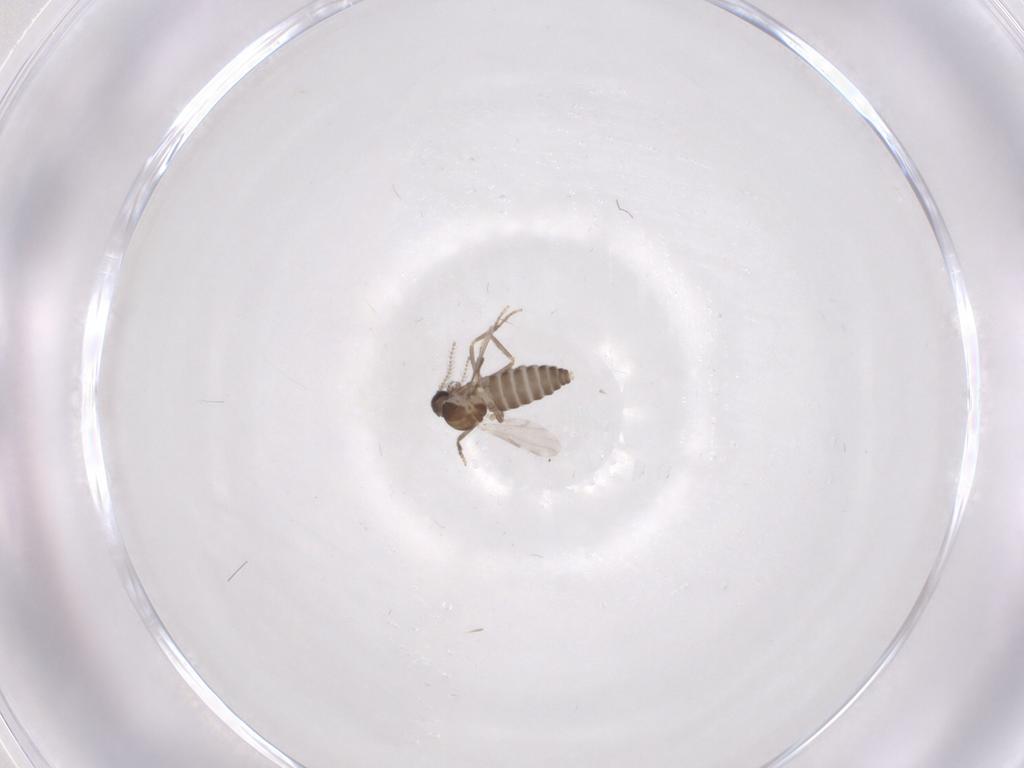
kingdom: Animalia
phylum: Arthropoda
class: Insecta
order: Diptera
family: Ceratopogonidae
